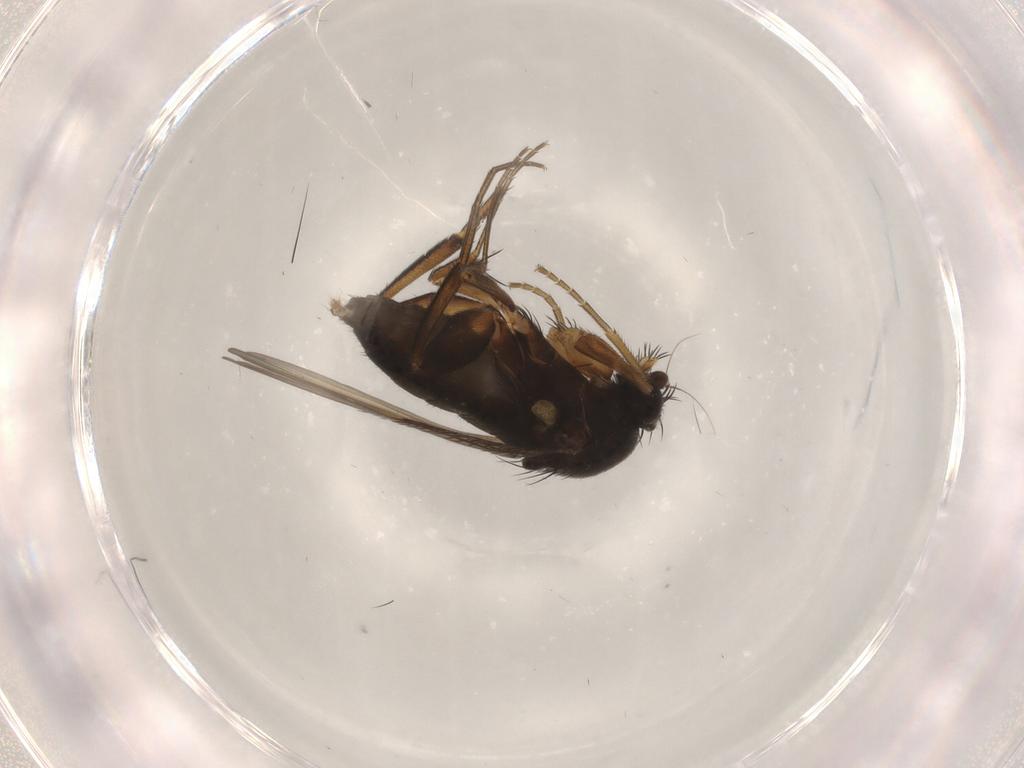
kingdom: Animalia
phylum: Arthropoda
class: Insecta
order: Diptera
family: Phoridae
